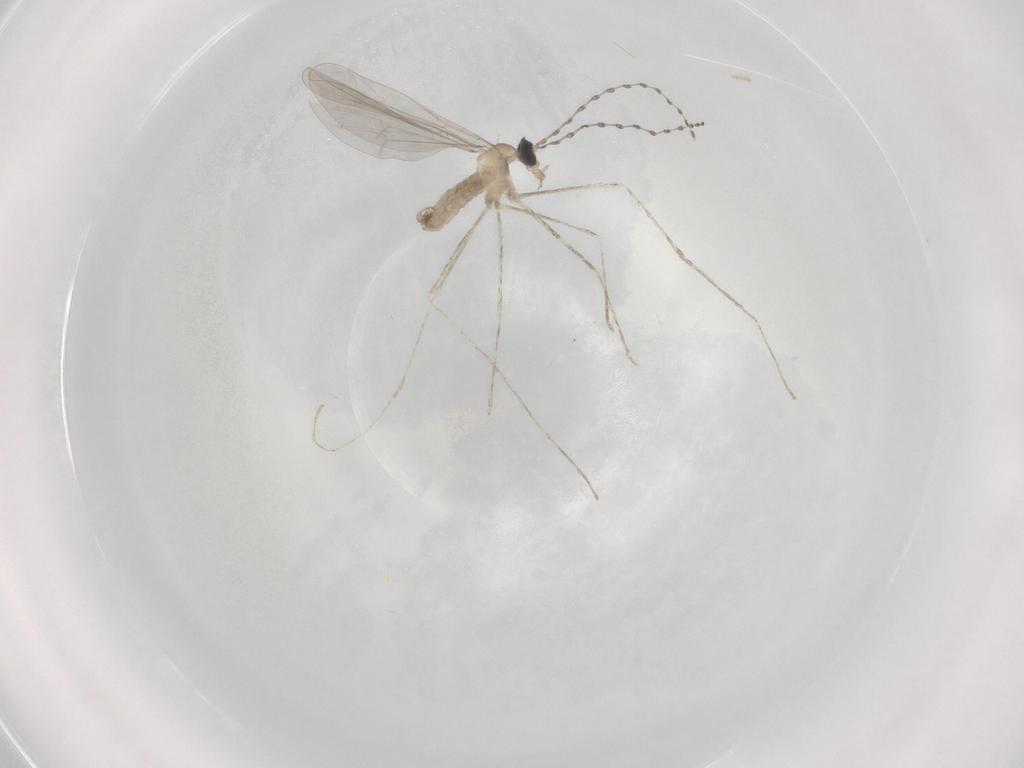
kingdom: Animalia
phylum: Arthropoda
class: Insecta
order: Diptera
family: Cecidomyiidae
